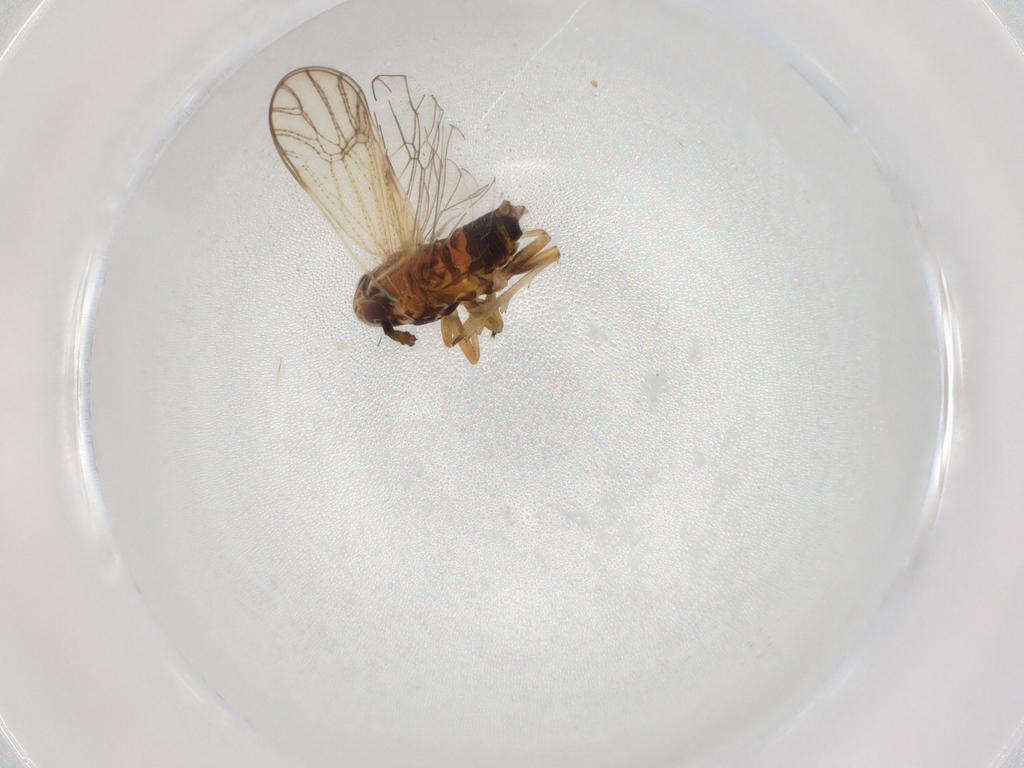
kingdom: Animalia
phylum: Arthropoda
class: Insecta
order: Hemiptera
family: Delphacidae
